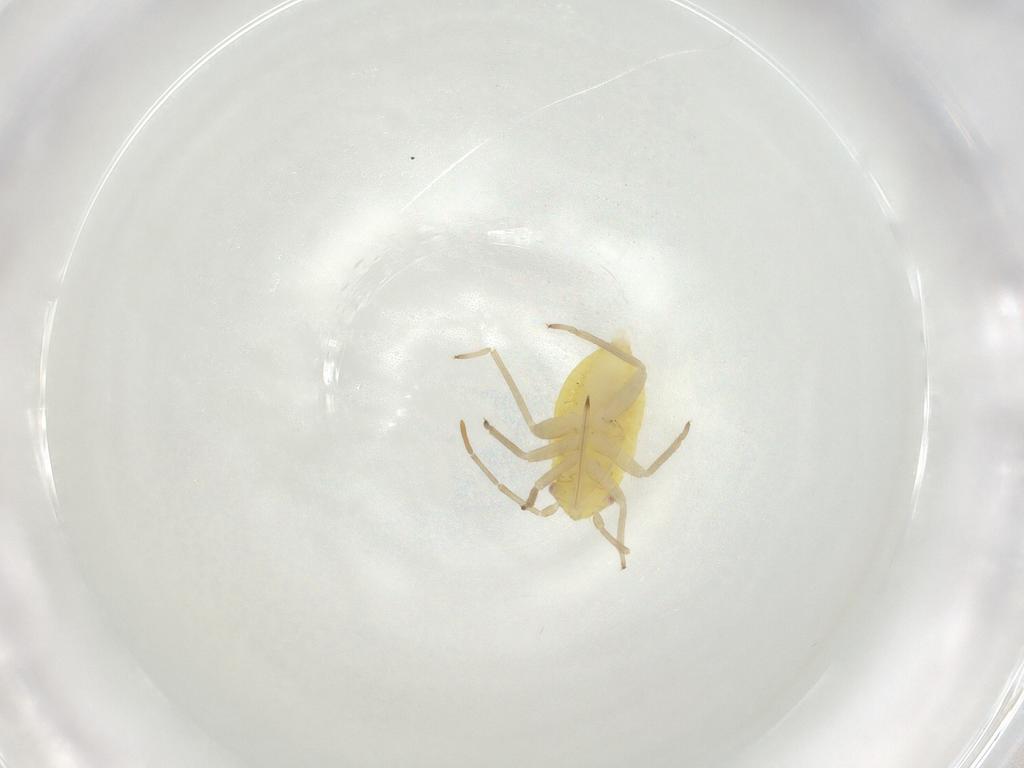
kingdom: Animalia
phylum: Arthropoda
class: Insecta
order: Hemiptera
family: Miridae
